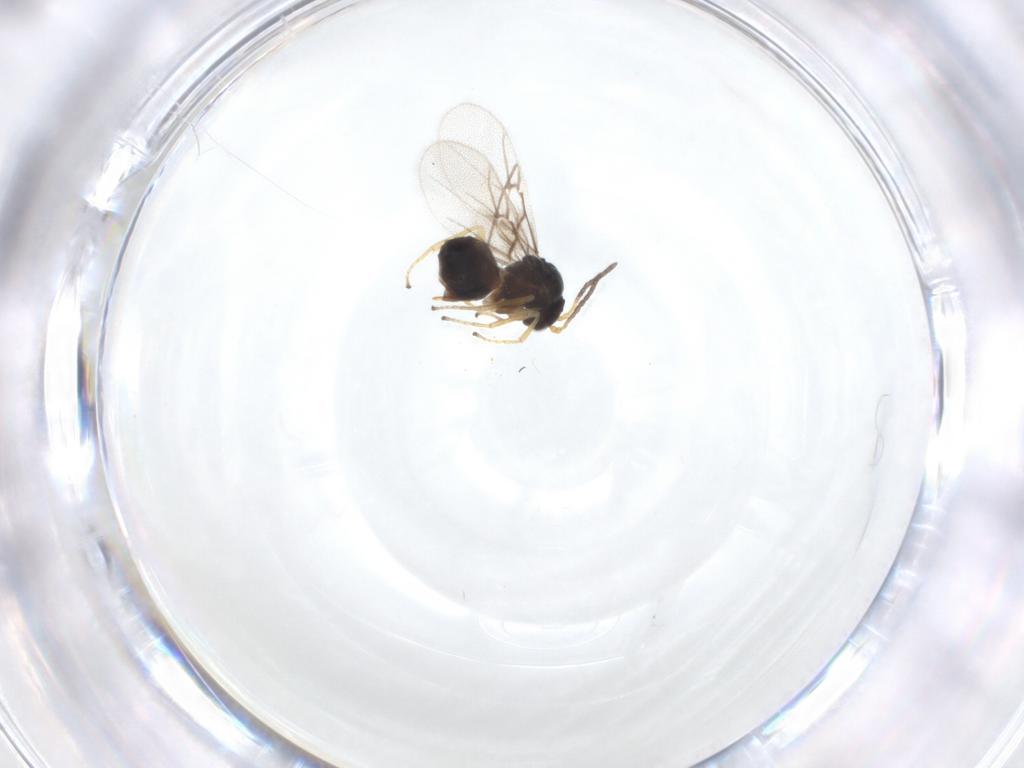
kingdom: Animalia
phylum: Arthropoda
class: Insecta
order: Hymenoptera
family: Cynipidae
